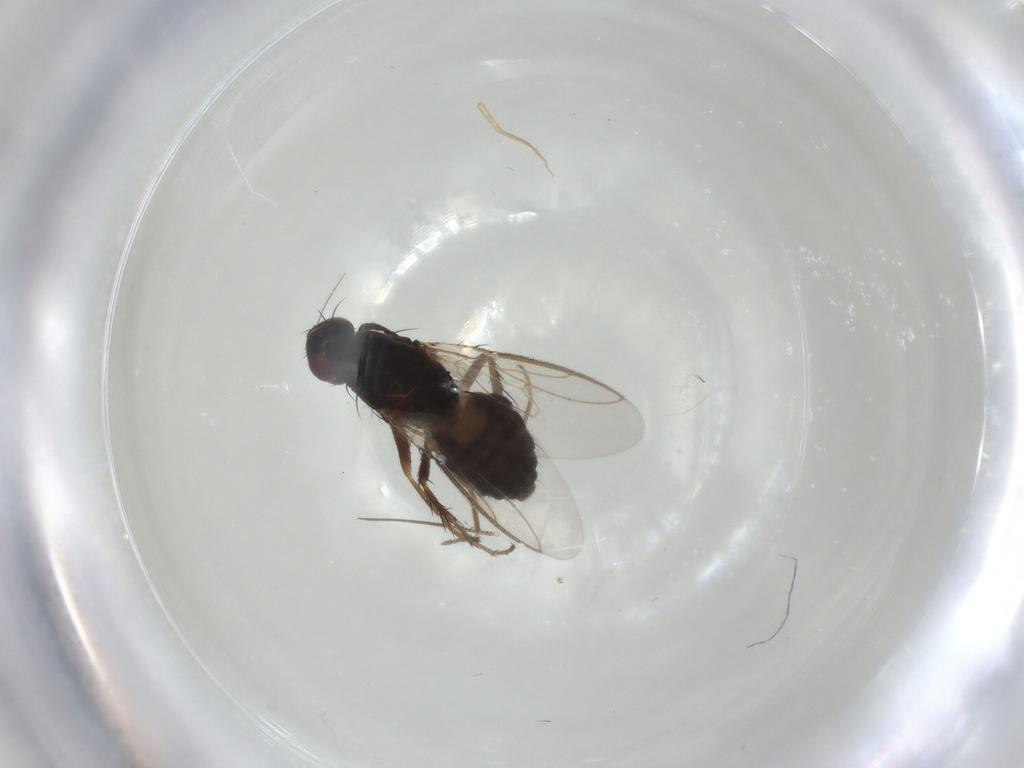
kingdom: Animalia
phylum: Arthropoda
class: Insecta
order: Diptera
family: Sphaeroceridae
